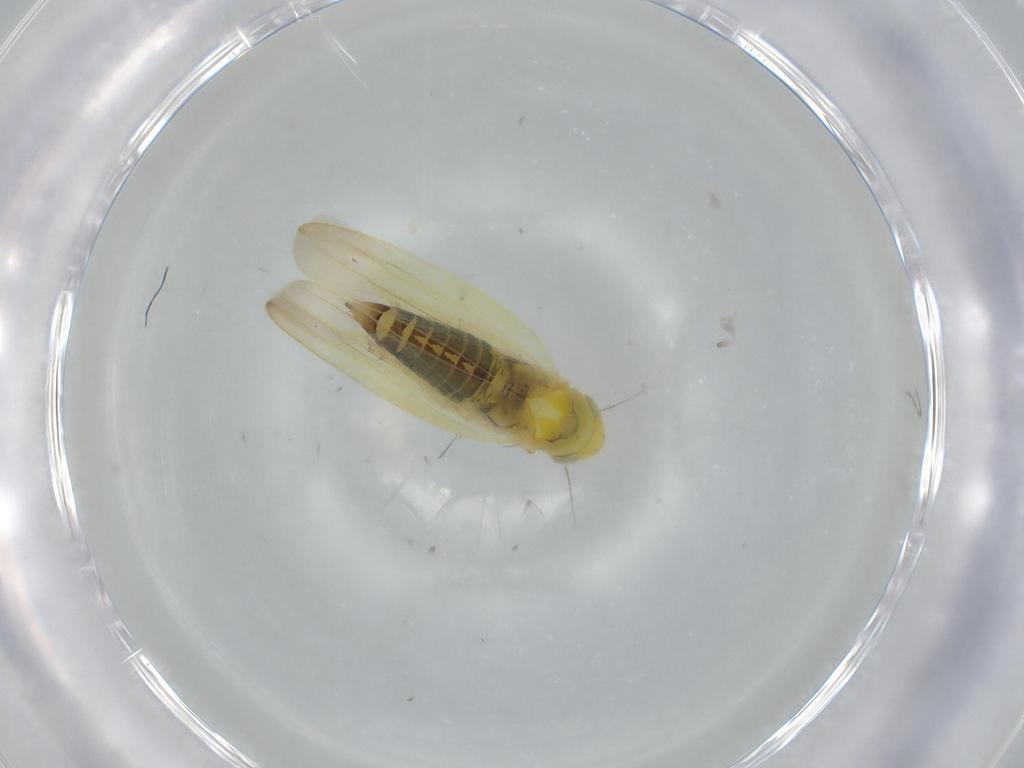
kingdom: Animalia
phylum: Arthropoda
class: Insecta
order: Hemiptera
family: Cicadellidae
